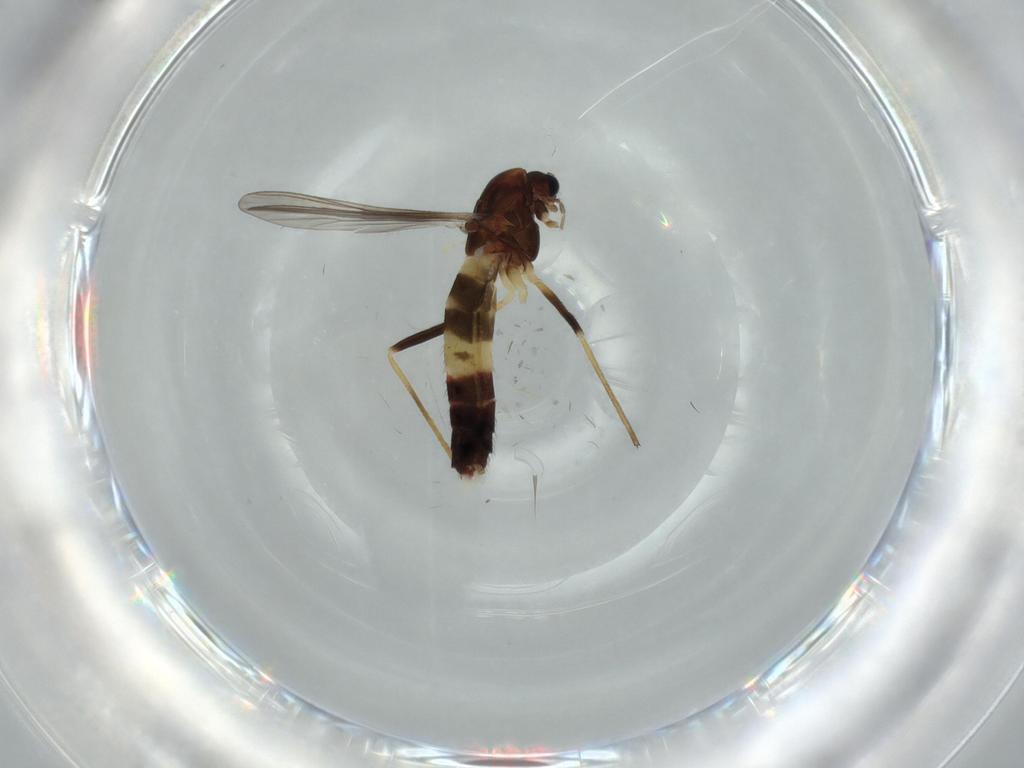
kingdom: Animalia
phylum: Arthropoda
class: Insecta
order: Diptera
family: Chironomidae
